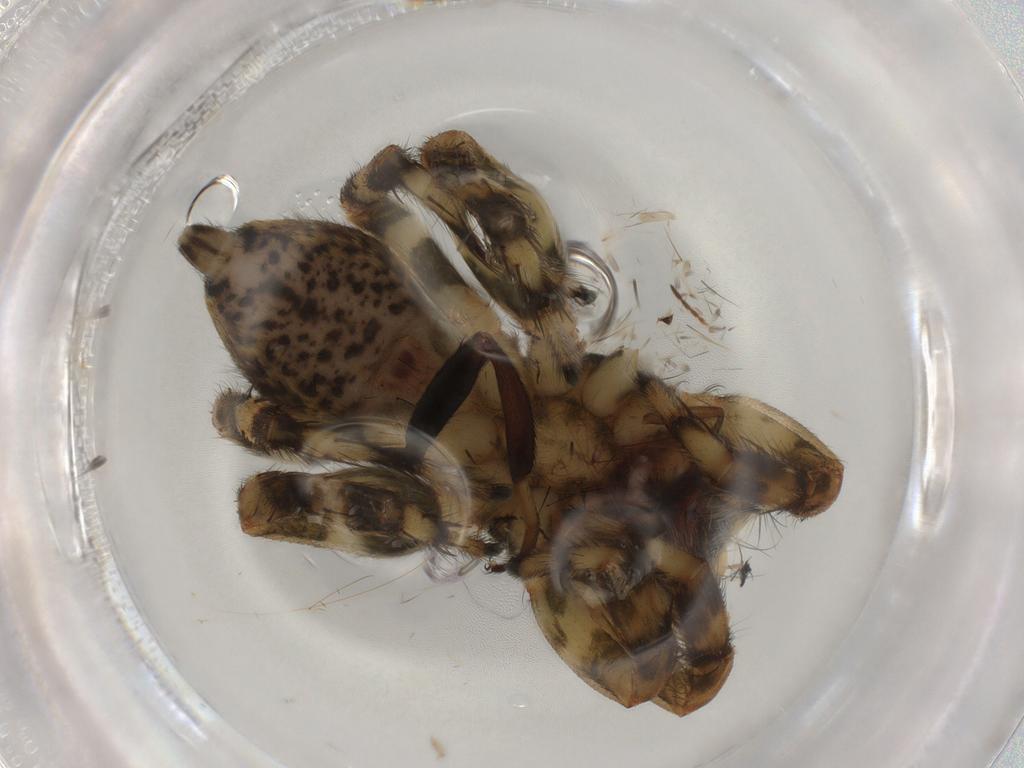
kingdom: Animalia
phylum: Arthropoda
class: Arachnida
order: Araneae
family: Salticidae
